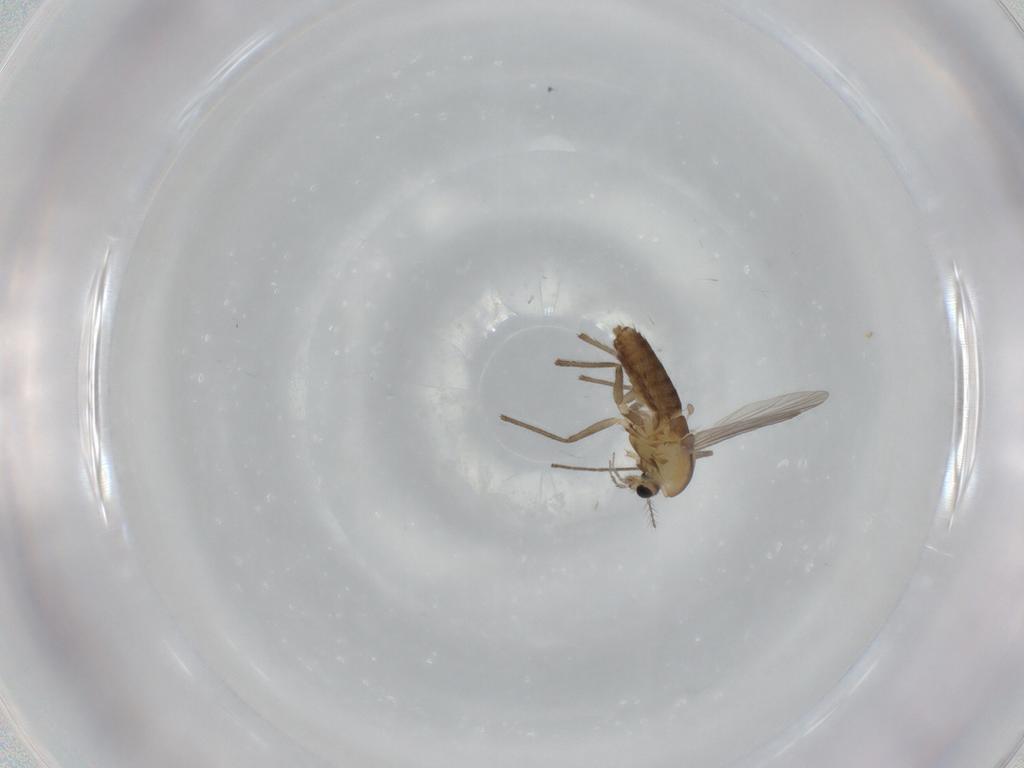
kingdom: Animalia
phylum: Arthropoda
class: Insecta
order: Diptera
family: Chironomidae
